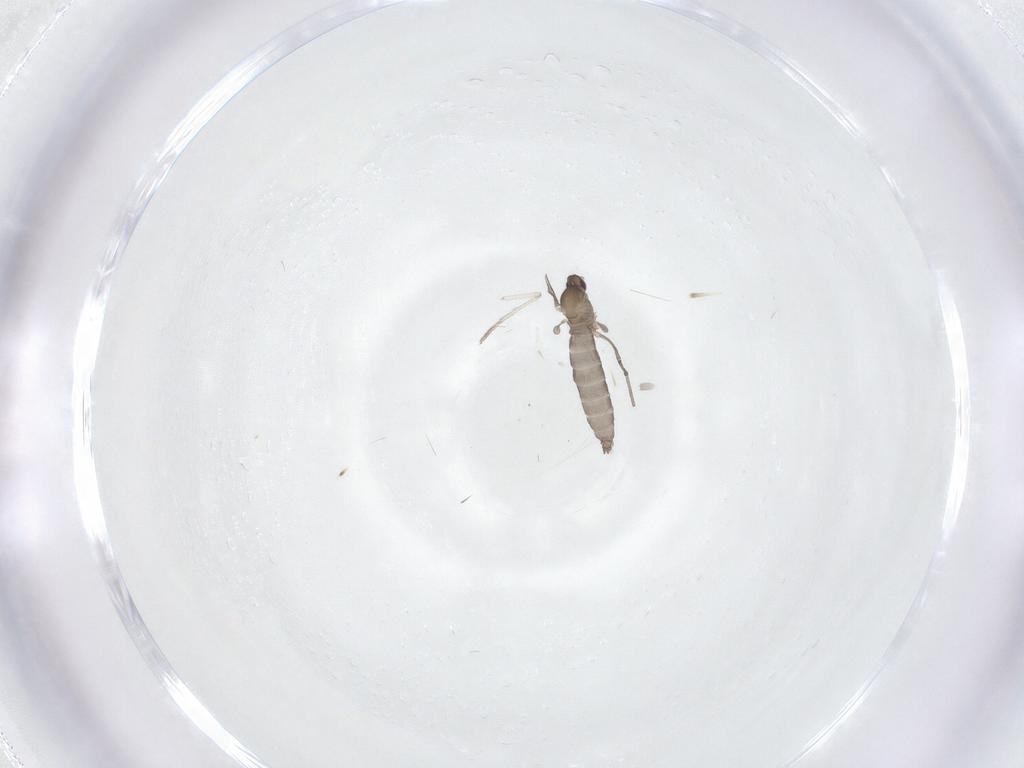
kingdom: Animalia
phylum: Arthropoda
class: Insecta
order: Diptera
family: Cecidomyiidae
